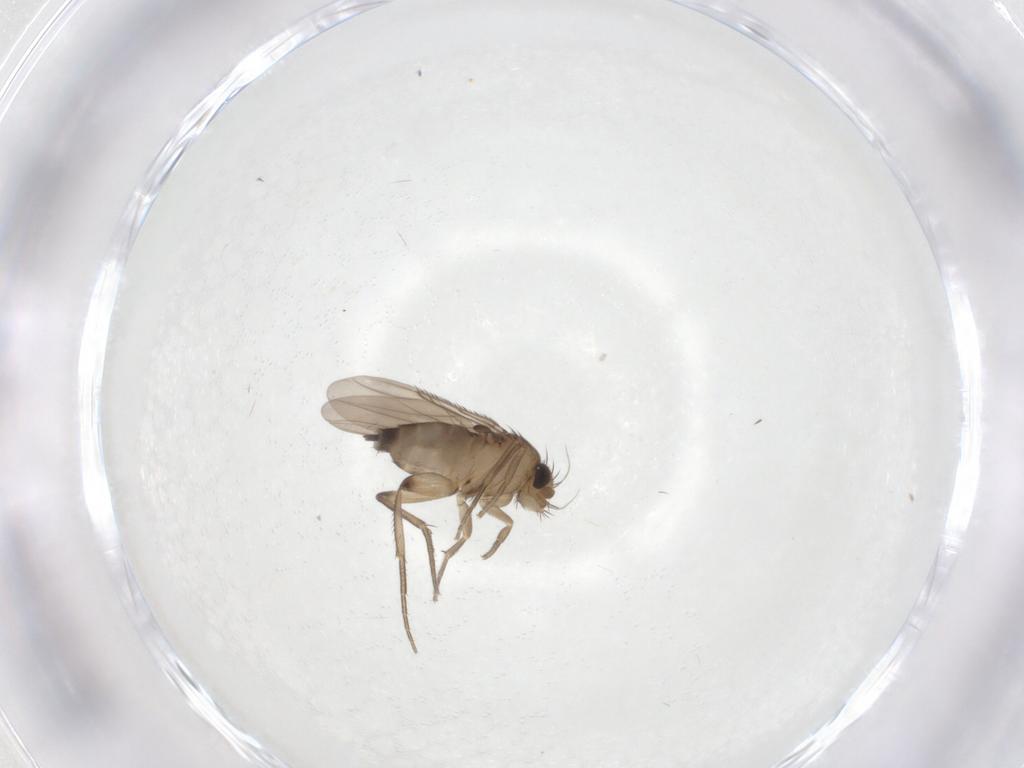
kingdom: Animalia
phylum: Arthropoda
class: Insecta
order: Diptera
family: Phoridae
